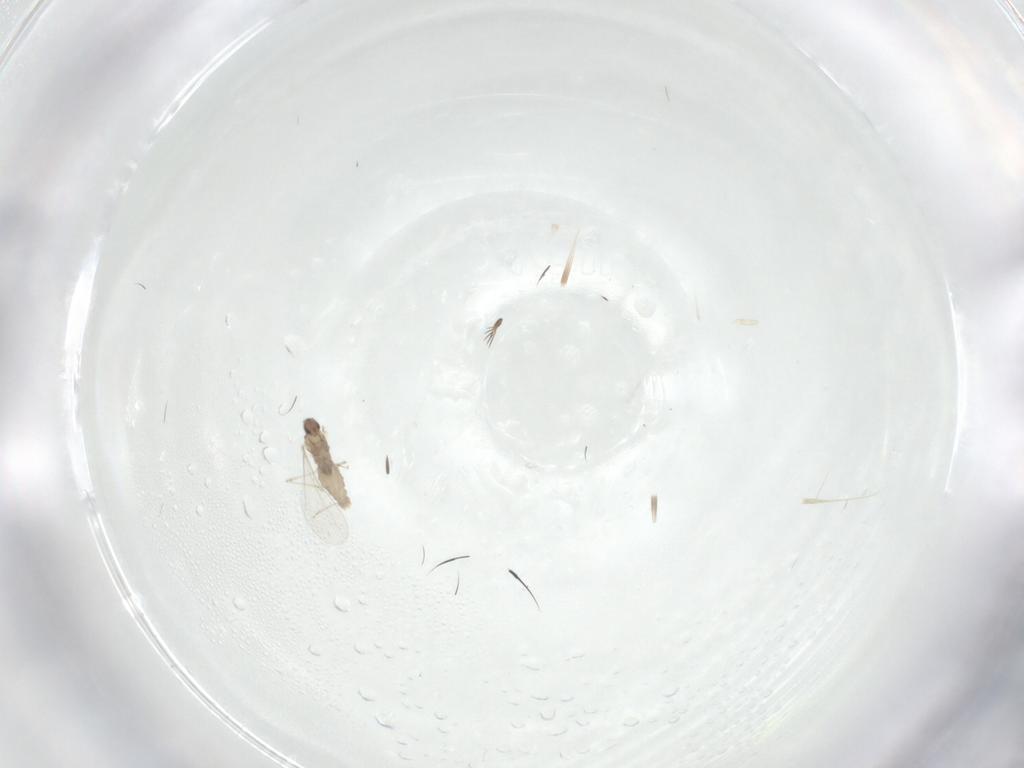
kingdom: Animalia
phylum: Arthropoda
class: Insecta
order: Diptera
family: Cecidomyiidae
